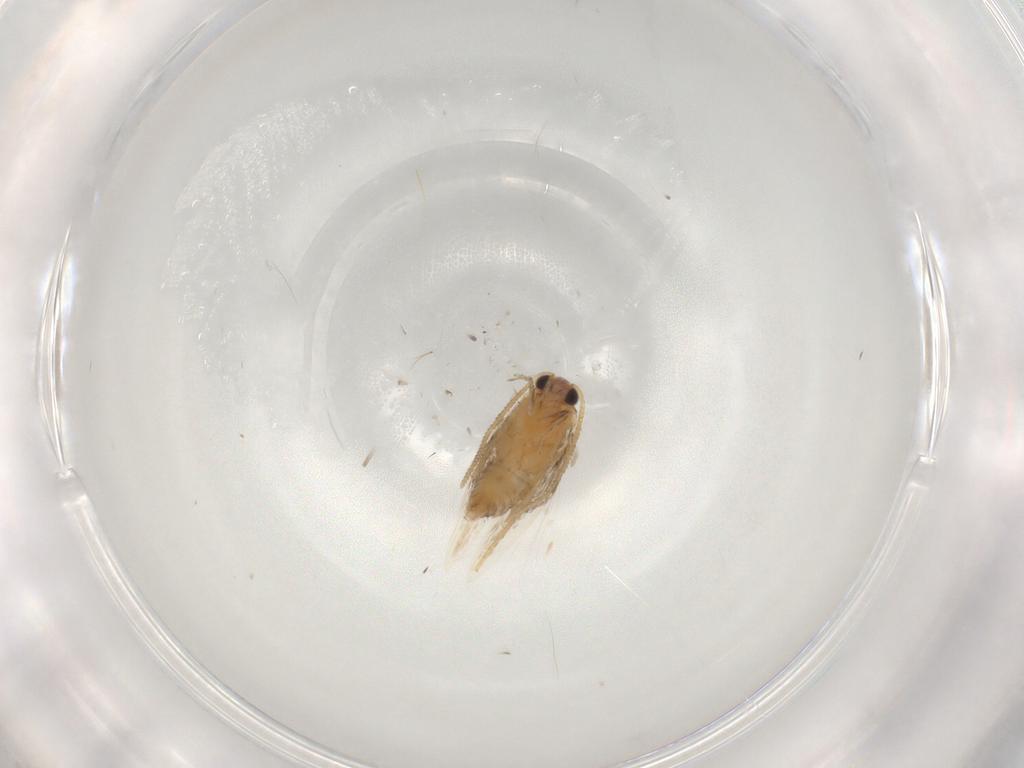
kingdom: Animalia
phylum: Arthropoda
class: Insecta
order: Lepidoptera
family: Nepticulidae
